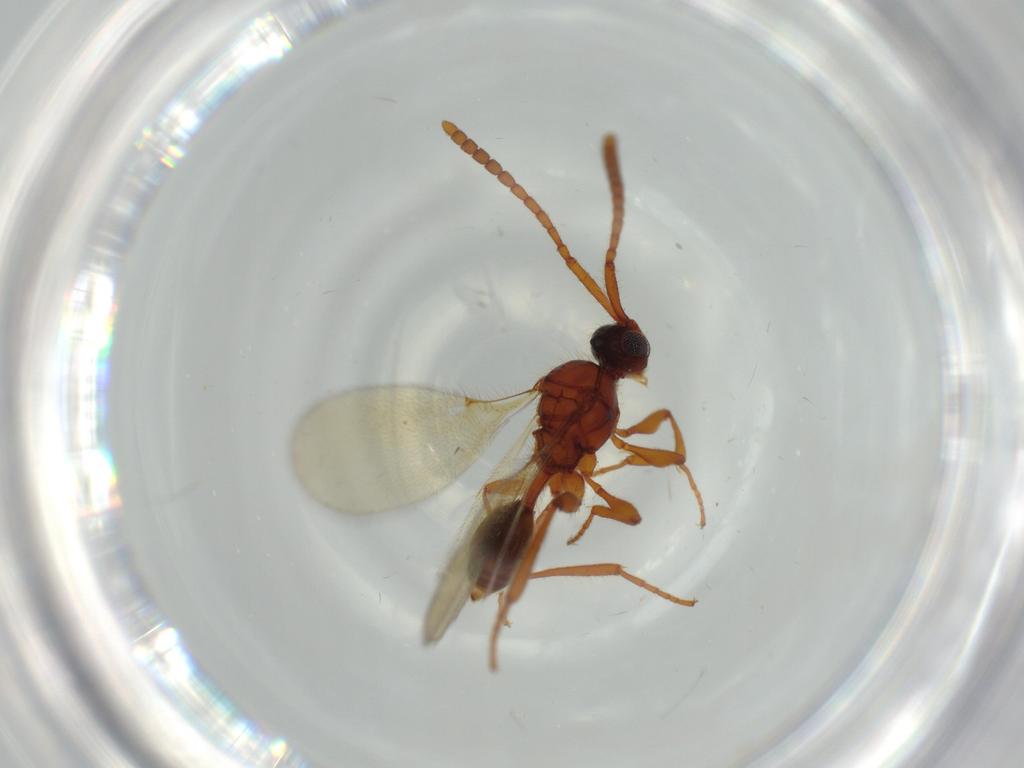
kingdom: Animalia
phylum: Arthropoda
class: Insecta
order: Hymenoptera
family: Diapriidae
